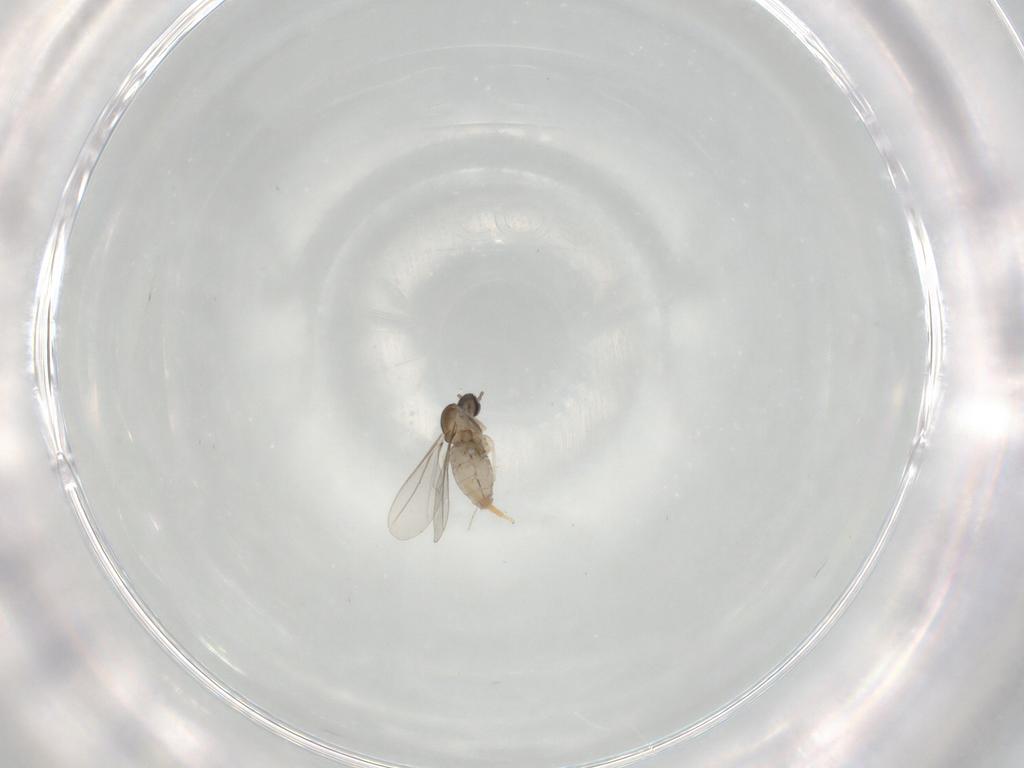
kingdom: Animalia
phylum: Arthropoda
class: Insecta
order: Diptera
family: Cecidomyiidae
